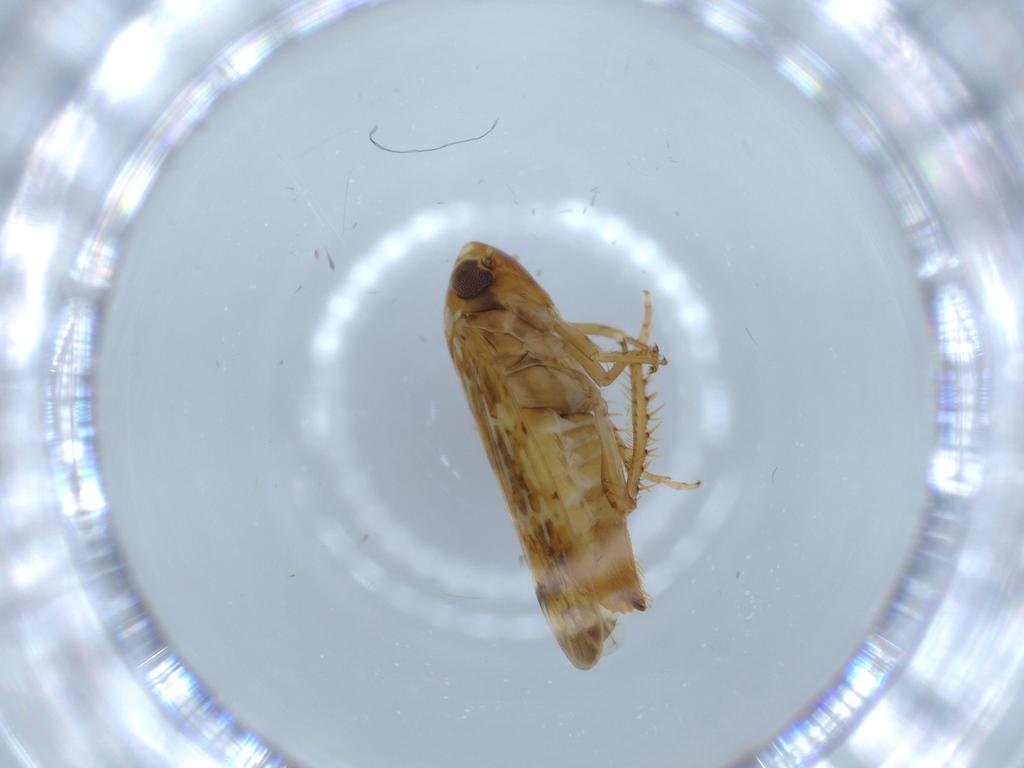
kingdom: Animalia
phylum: Arthropoda
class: Insecta
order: Hemiptera
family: Cicadellidae
